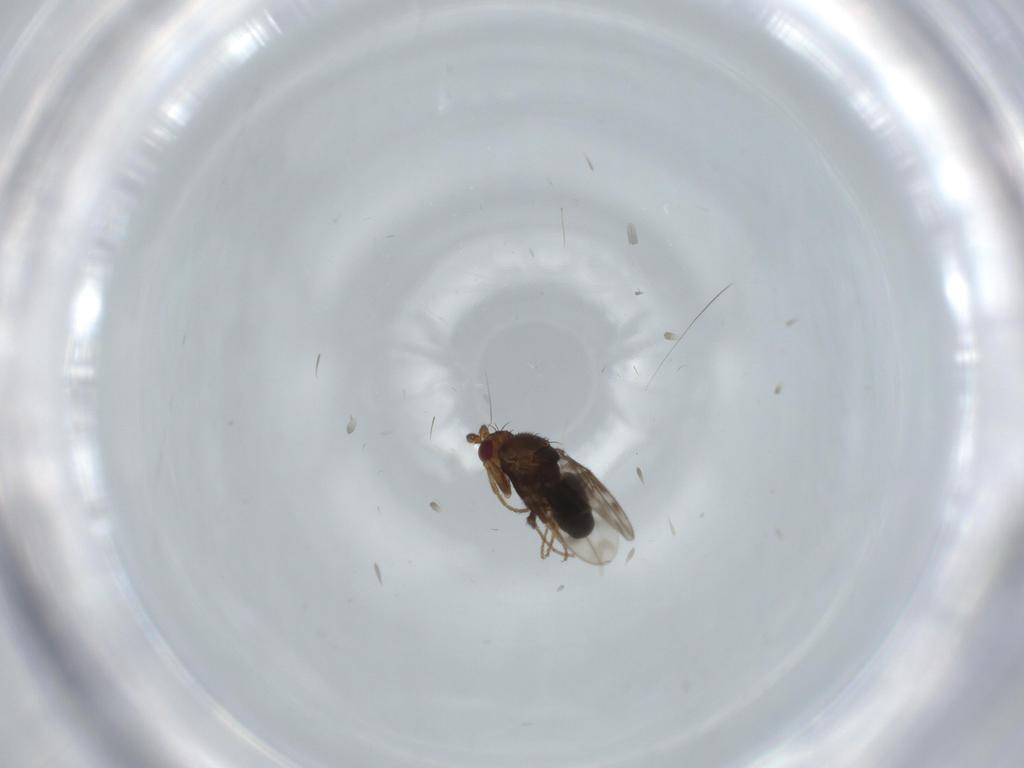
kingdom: Animalia
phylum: Arthropoda
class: Insecta
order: Diptera
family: Sphaeroceridae
